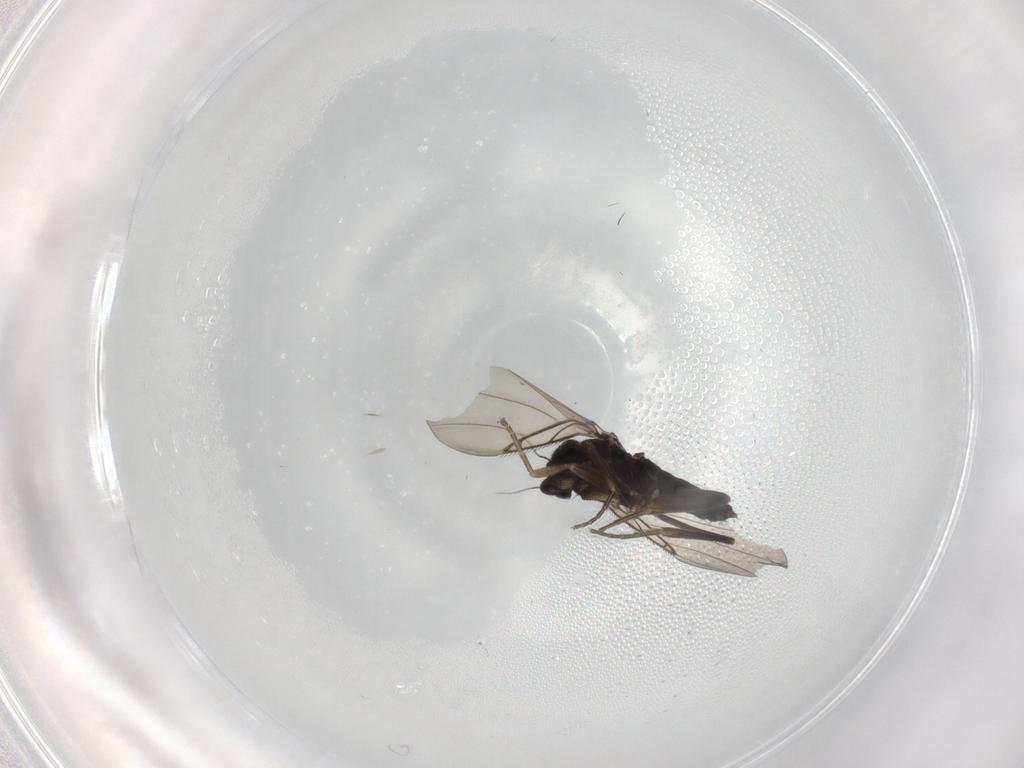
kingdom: Animalia
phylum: Arthropoda
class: Insecta
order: Diptera
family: Phoridae
